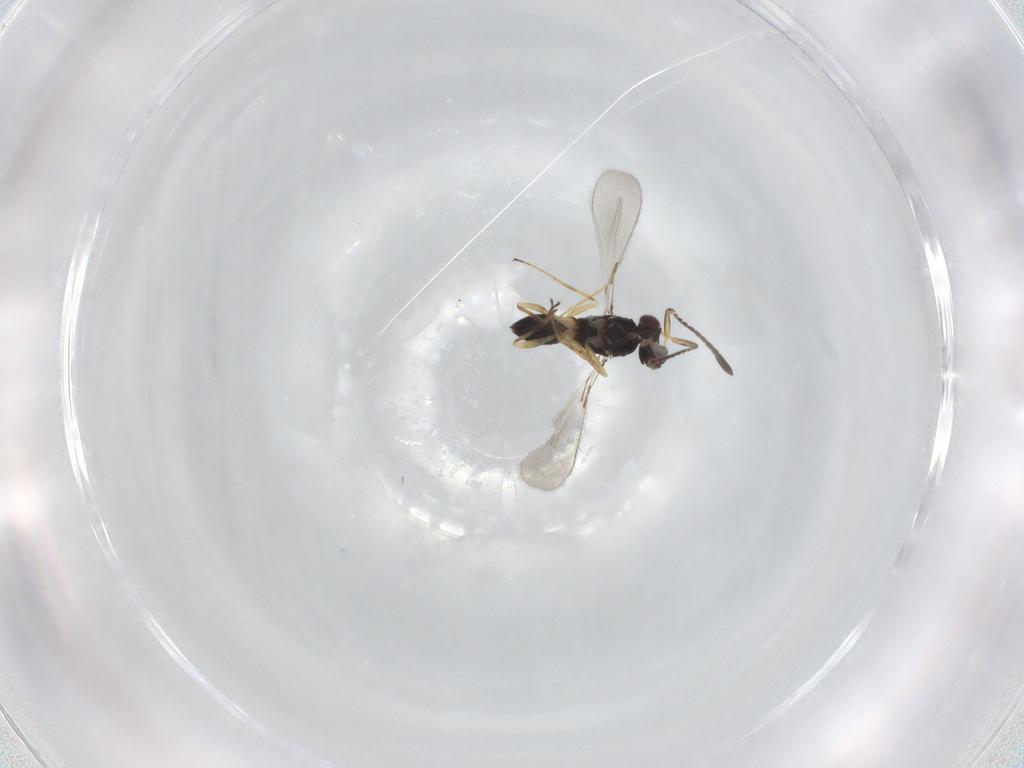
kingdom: Animalia
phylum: Arthropoda
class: Insecta
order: Hymenoptera
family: Mymaridae
